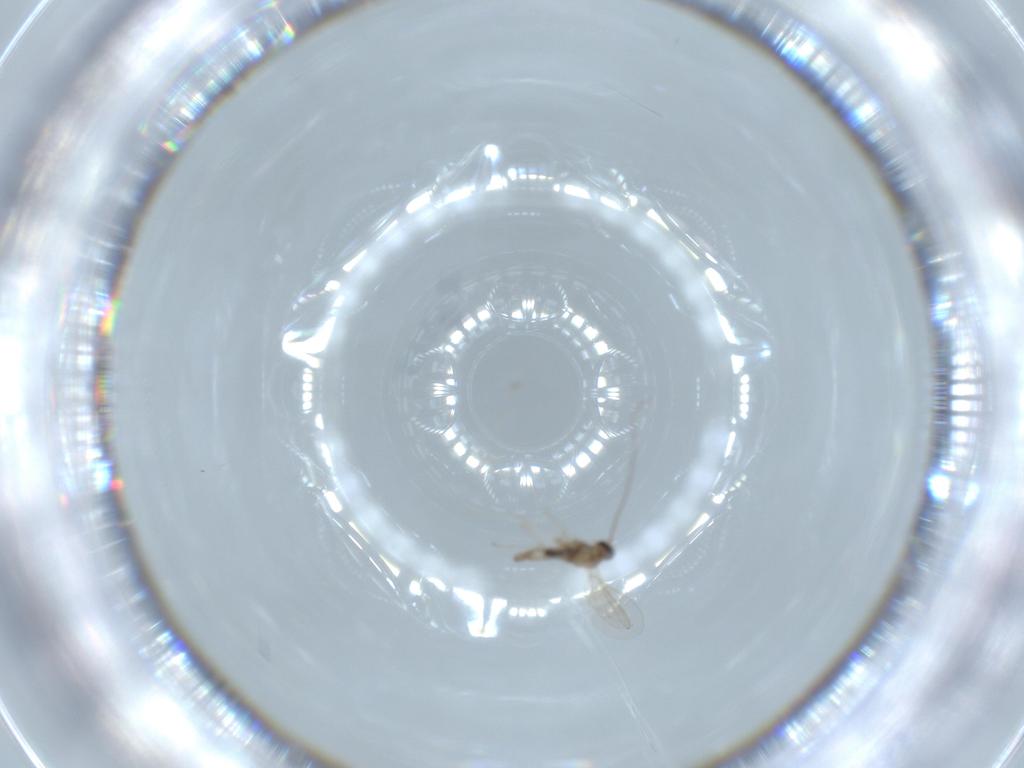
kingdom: Animalia
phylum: Arthropoda
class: Insecta
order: Diptera
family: Cecidomyiidae
